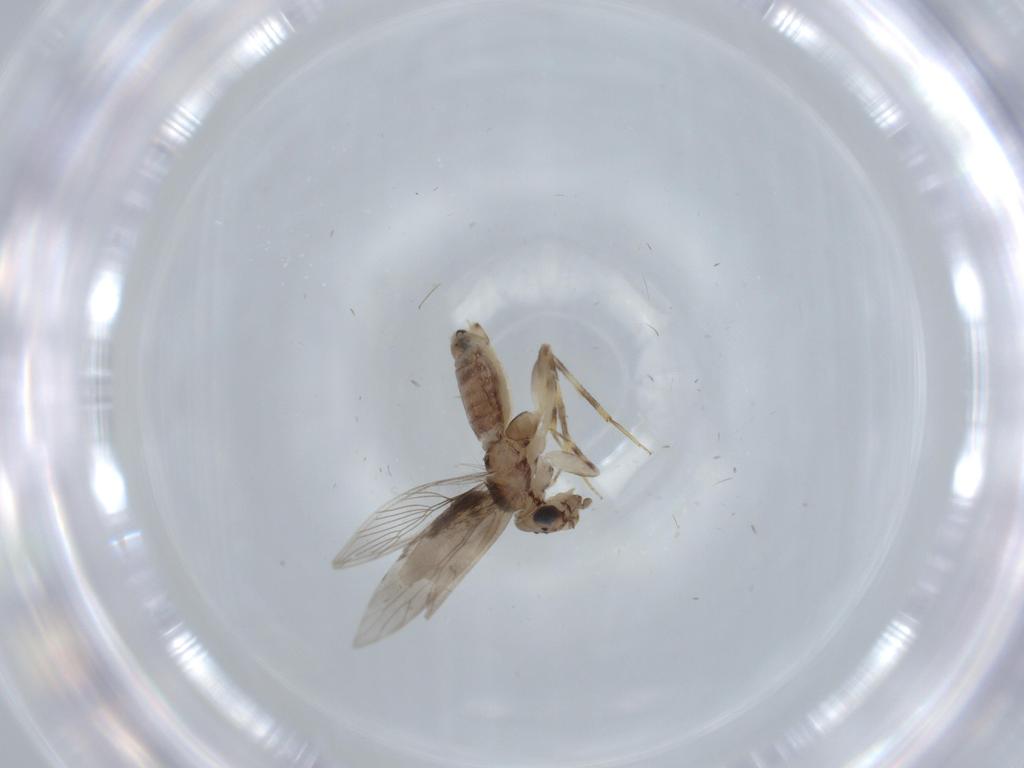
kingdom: Animalia
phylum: Arthropoda
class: Insecta
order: Psocodea
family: Lepidopsocidae
